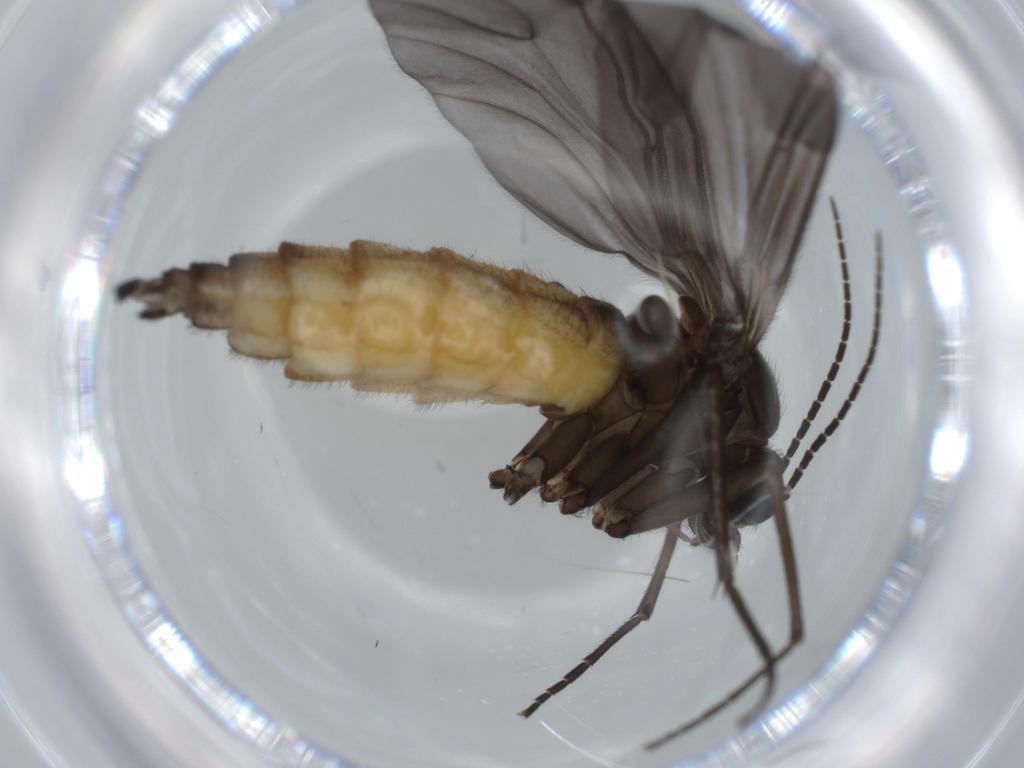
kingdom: Animalia
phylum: Arthropoda
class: Insecta
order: Diptera
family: Sciaridae
